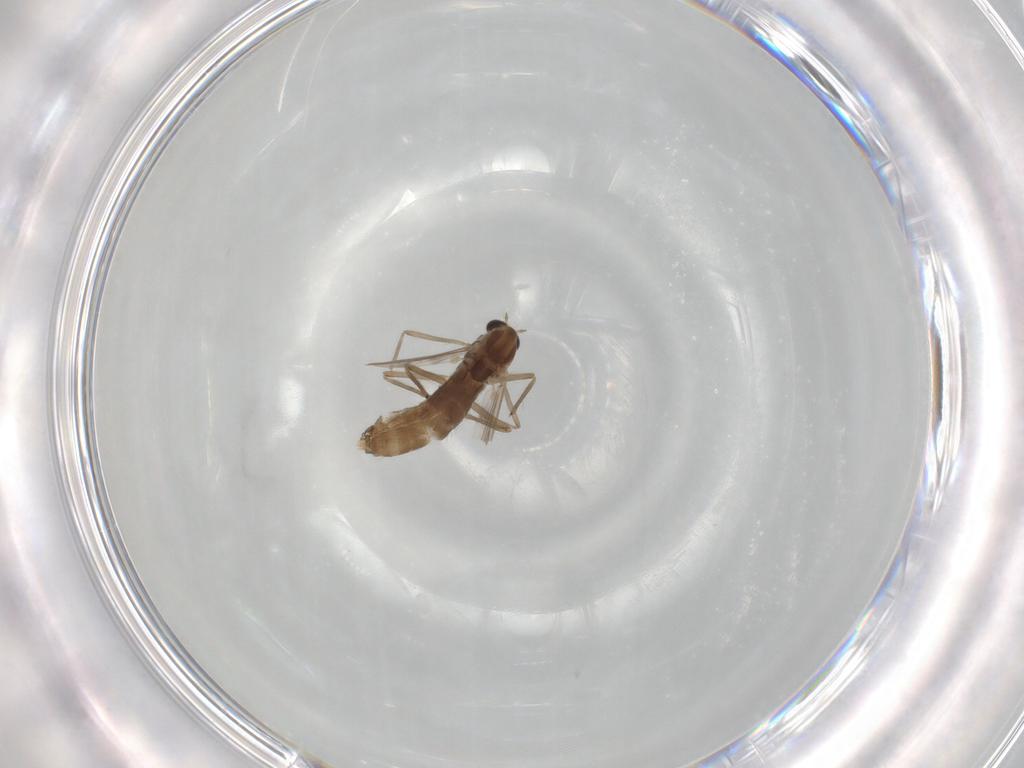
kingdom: Animalia
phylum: Arthropoda
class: Insecta
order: Diptera
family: Chironomidae
